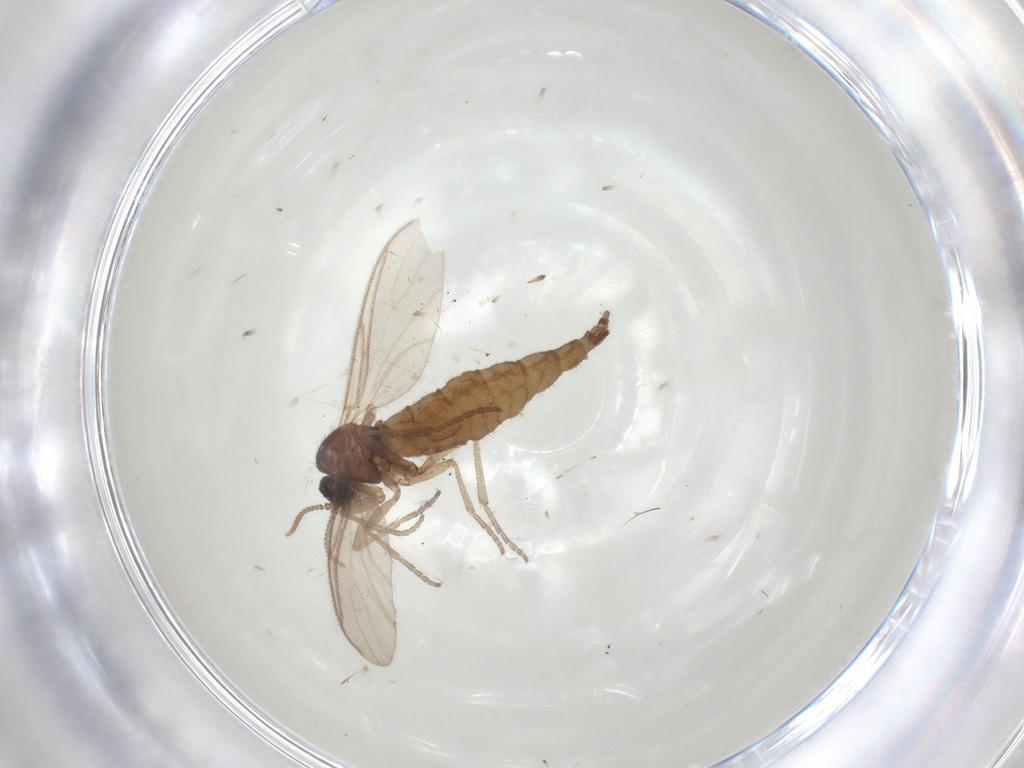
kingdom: Animalia
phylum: Arthropoda
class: Insecta
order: Diptera
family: Sciaridae
